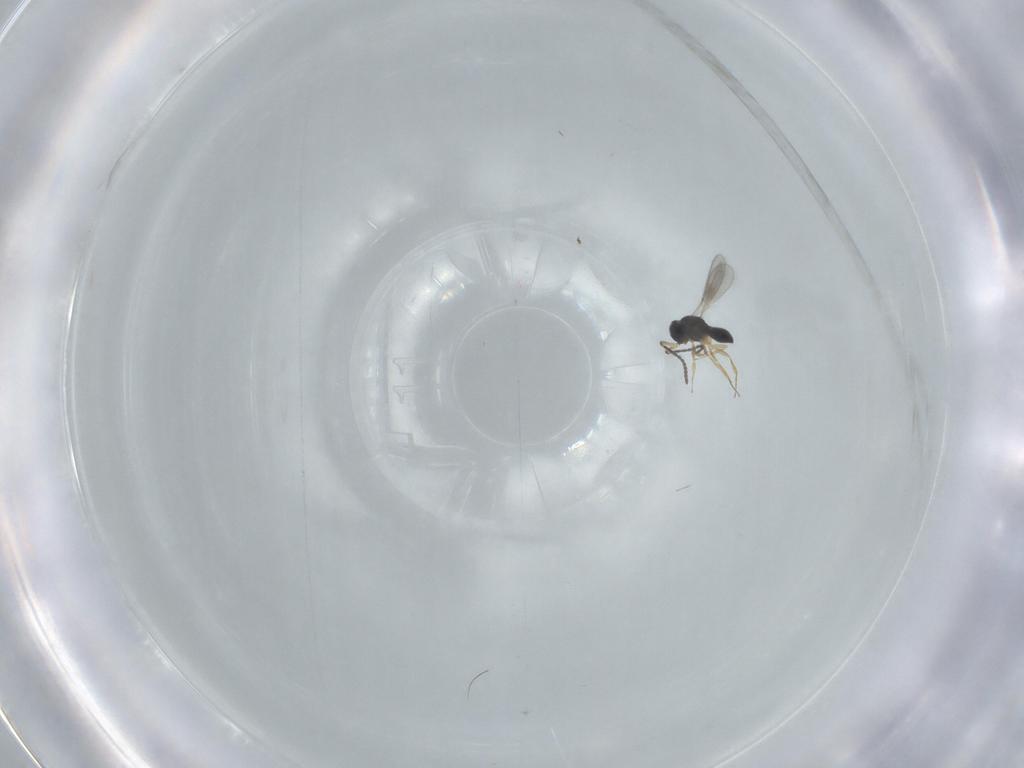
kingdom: Animalia
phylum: Arthropoda
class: Insecta
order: Hymenoptera
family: Scelionidae
